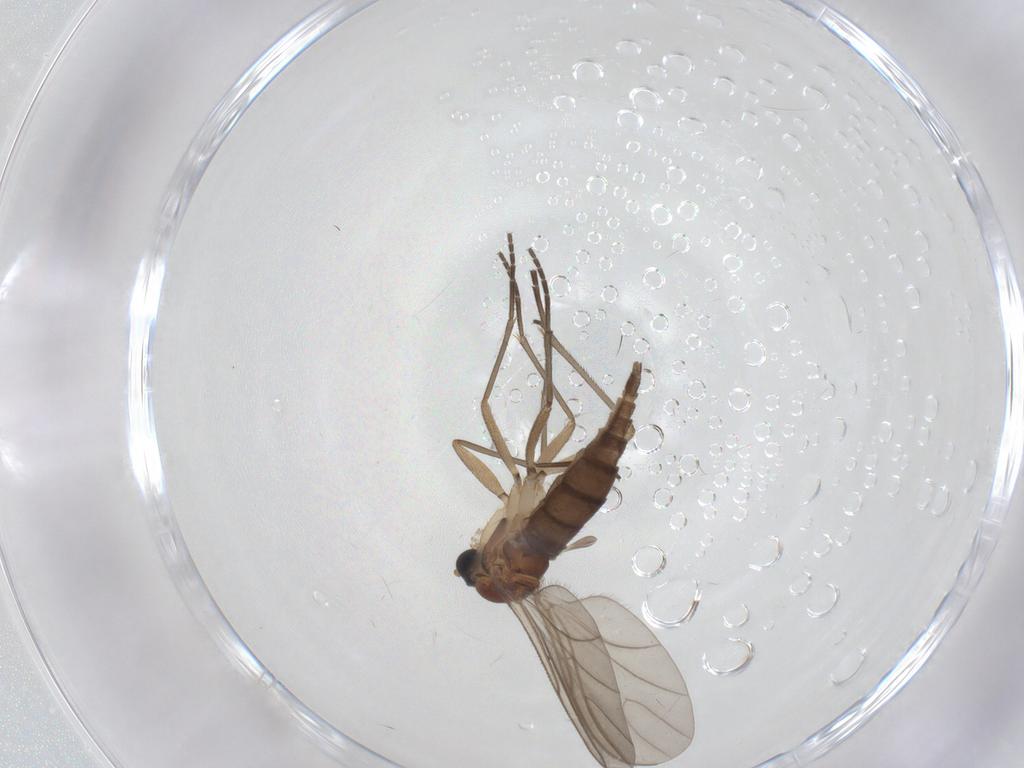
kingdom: Animalia
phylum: Arthropoda
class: Insecta
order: Diptera
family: Sciaridae
